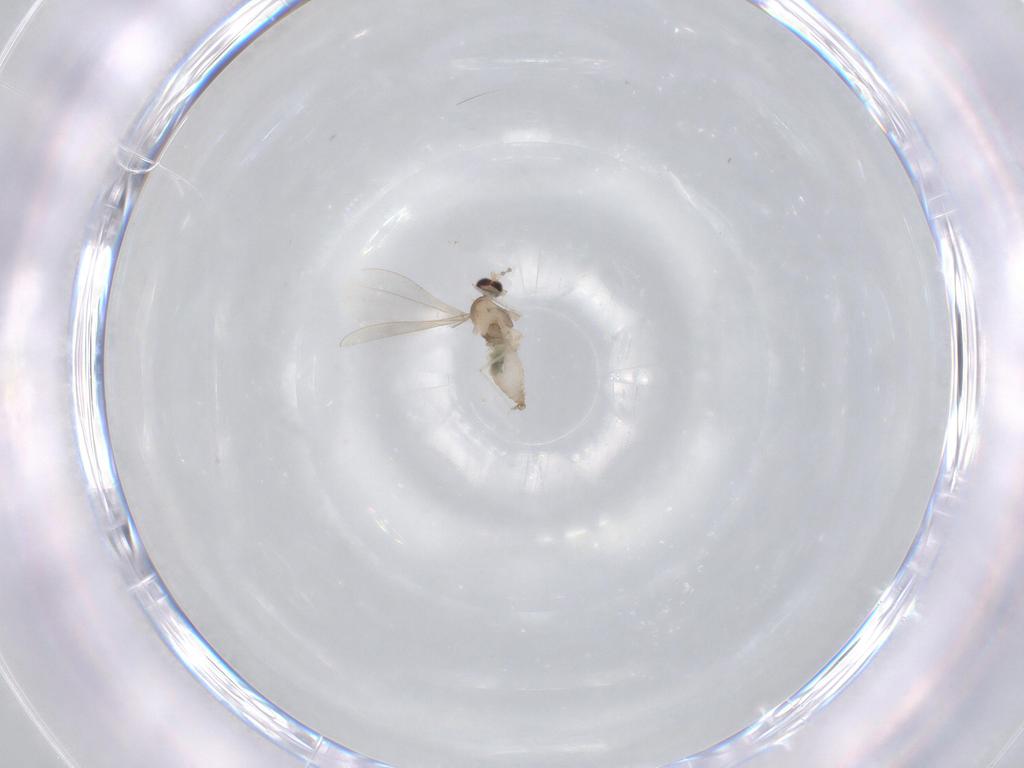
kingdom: Animalia
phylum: Arthropoda
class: Insecta
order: Diptera
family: Cecidomyiidae
